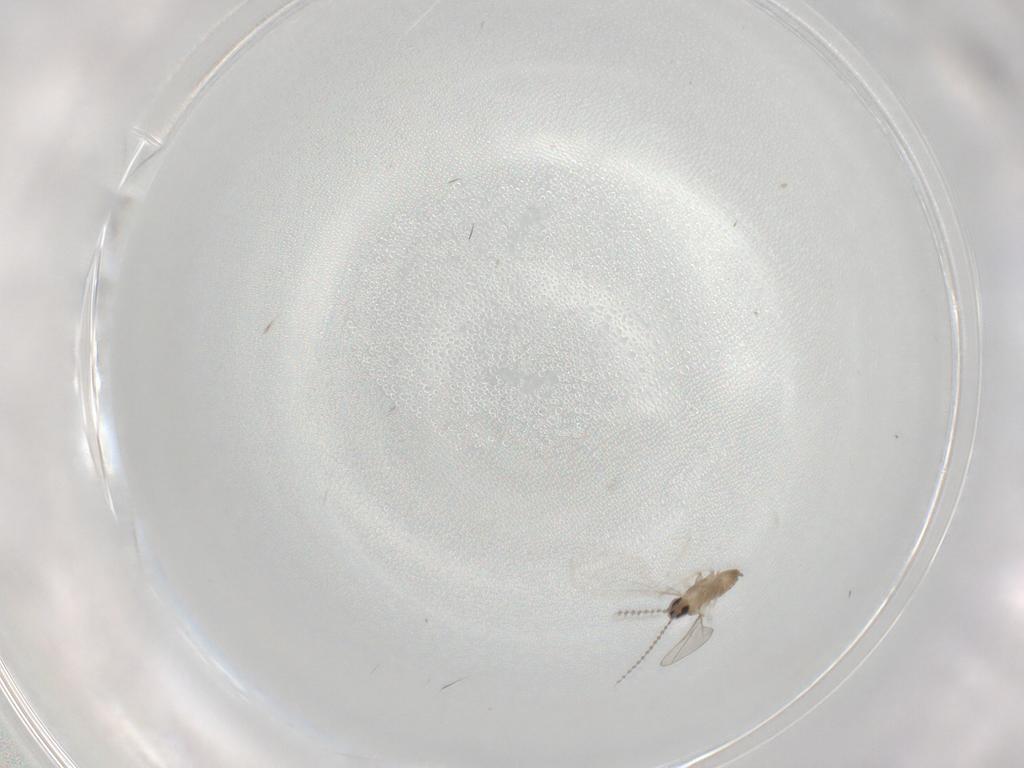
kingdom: Animalia
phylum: Arthropoda
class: Insecta
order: Diptera
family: Cecidomyiidae
